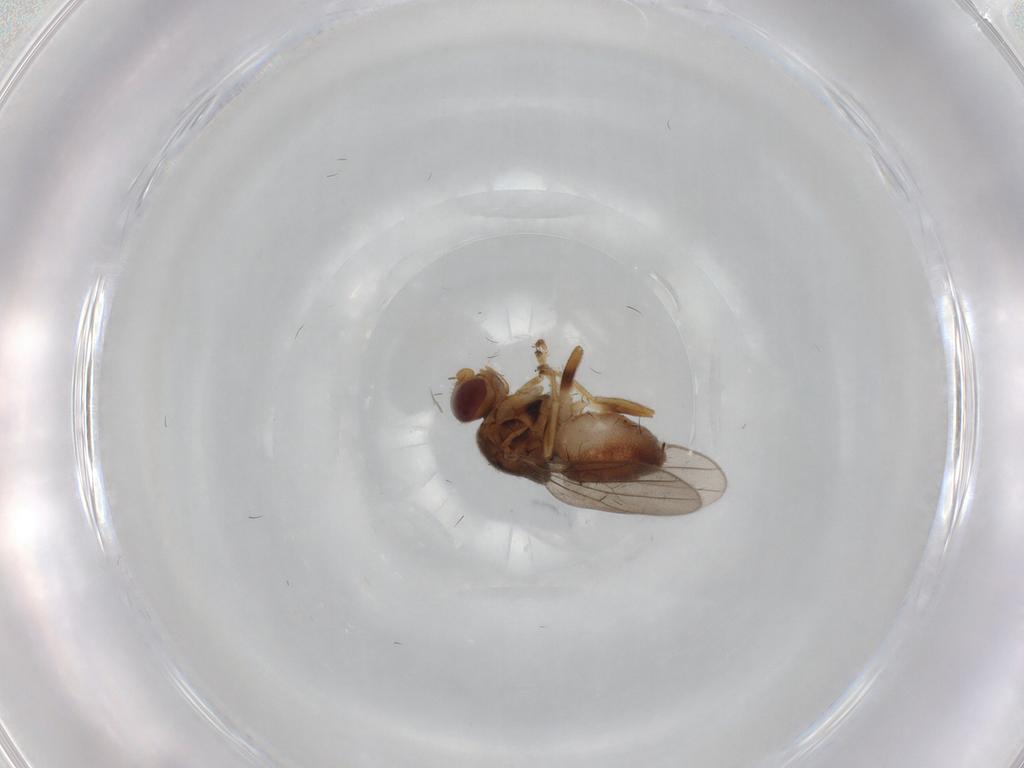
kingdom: Animalia
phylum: Arthropoda
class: Insecta
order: Diptera
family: Chloropidae
